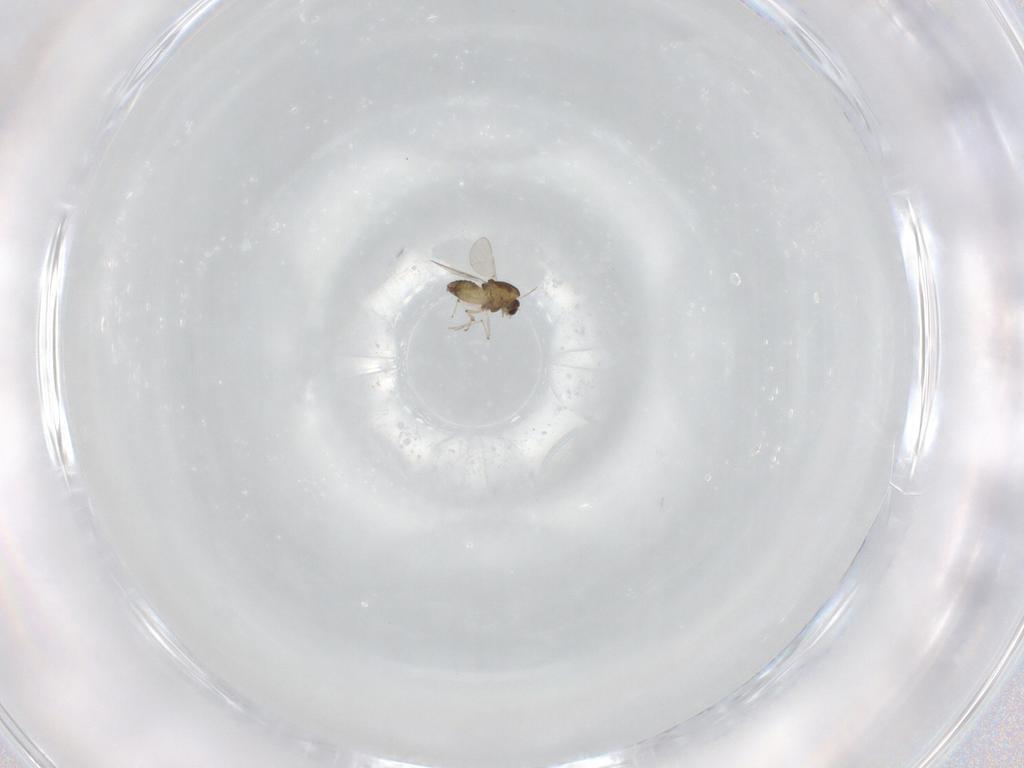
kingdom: Animalia
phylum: Arthropoda
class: Insecta
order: Diptera
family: Chironomidae
